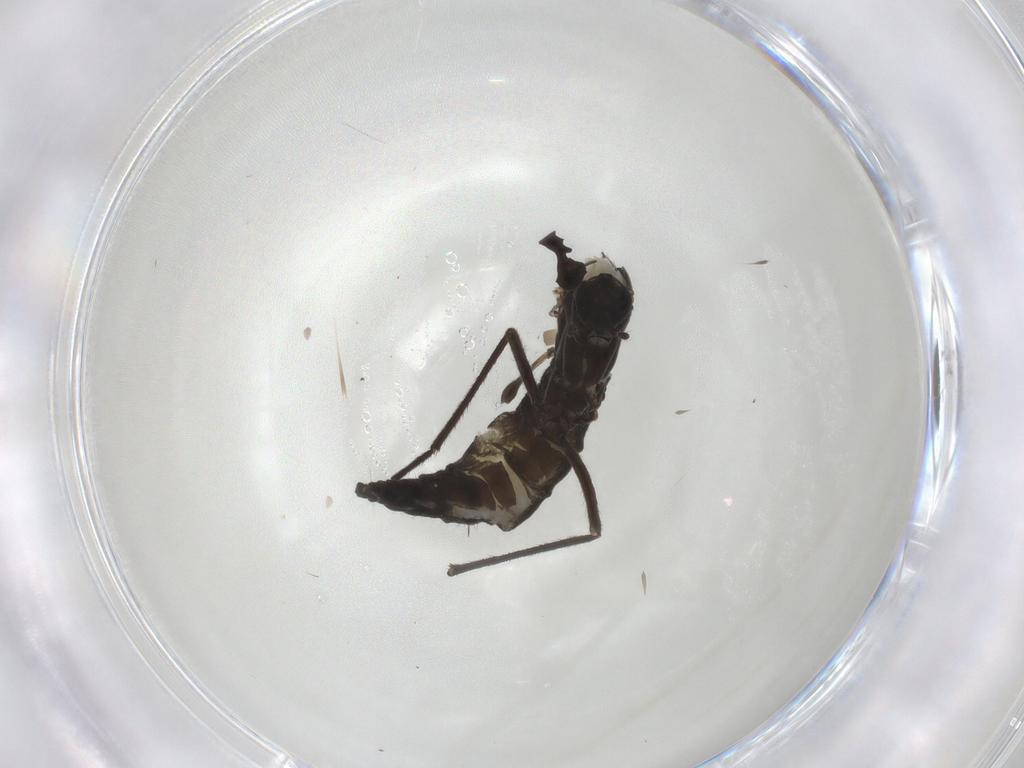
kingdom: Animalia
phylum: Arthropoda
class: Insecta
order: Diptera
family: Sciaridae
